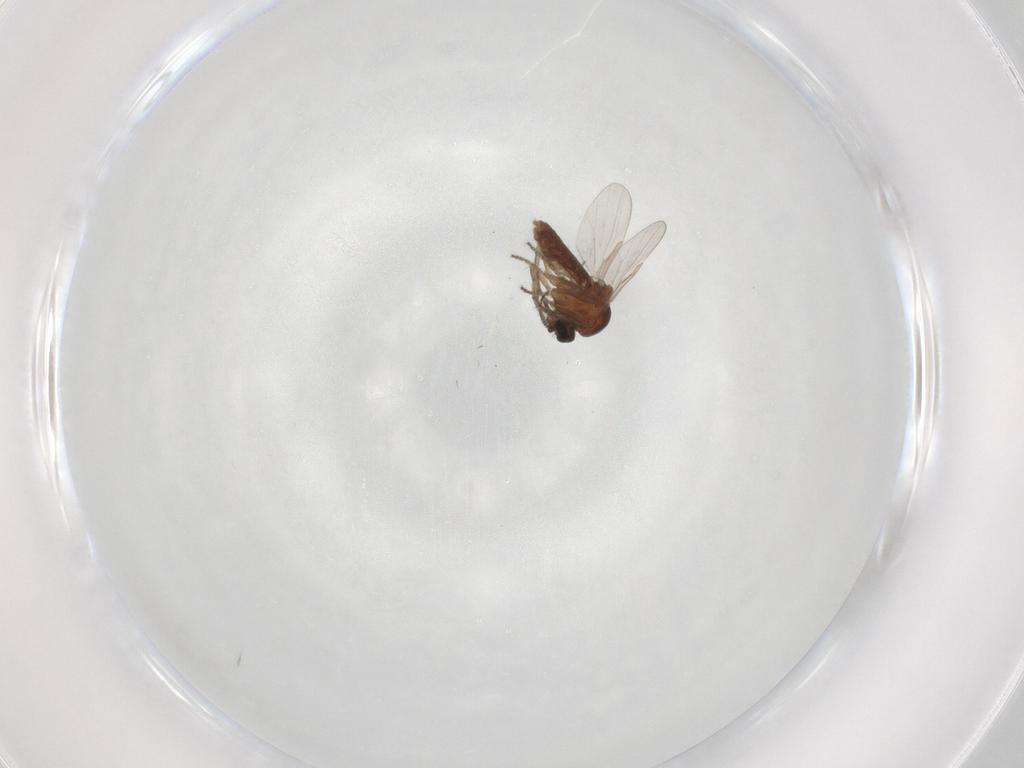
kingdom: Animalia
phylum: Arthropoda
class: Insecta
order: Diptera
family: Ceratopogonidae
